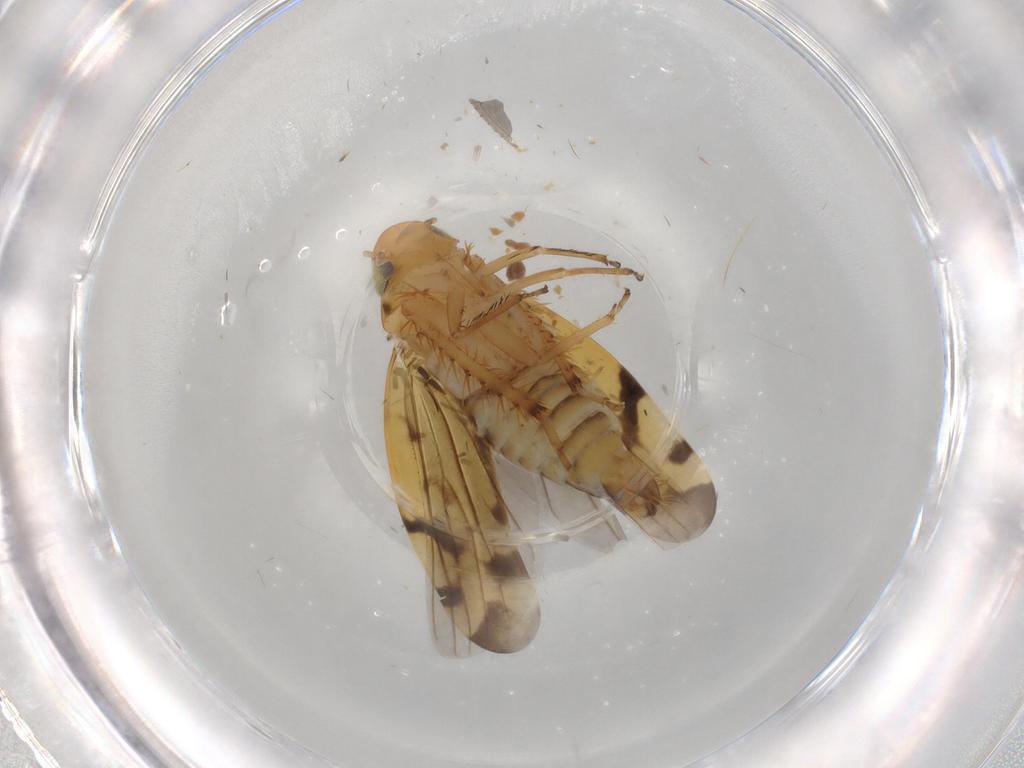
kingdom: Animalia
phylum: Arthropoda
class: Insecta
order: Hemiptera
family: Cicadellidae
